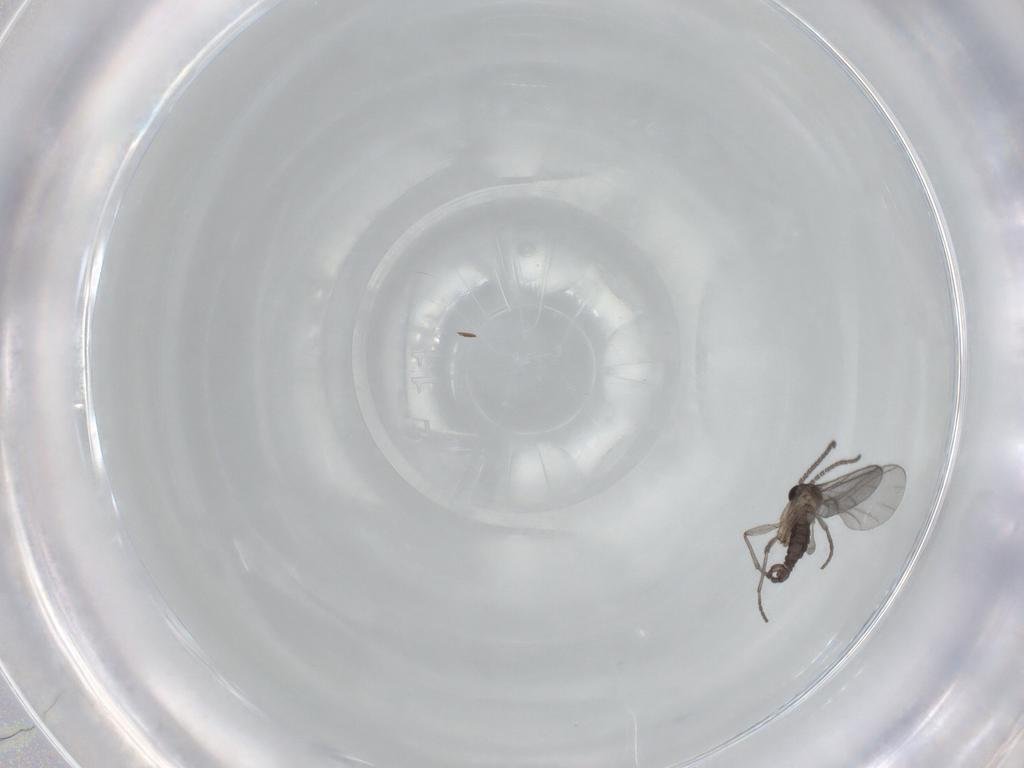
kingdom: Animalia
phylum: Arthropoda
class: Insecta
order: Diptera
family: Sciaridae
